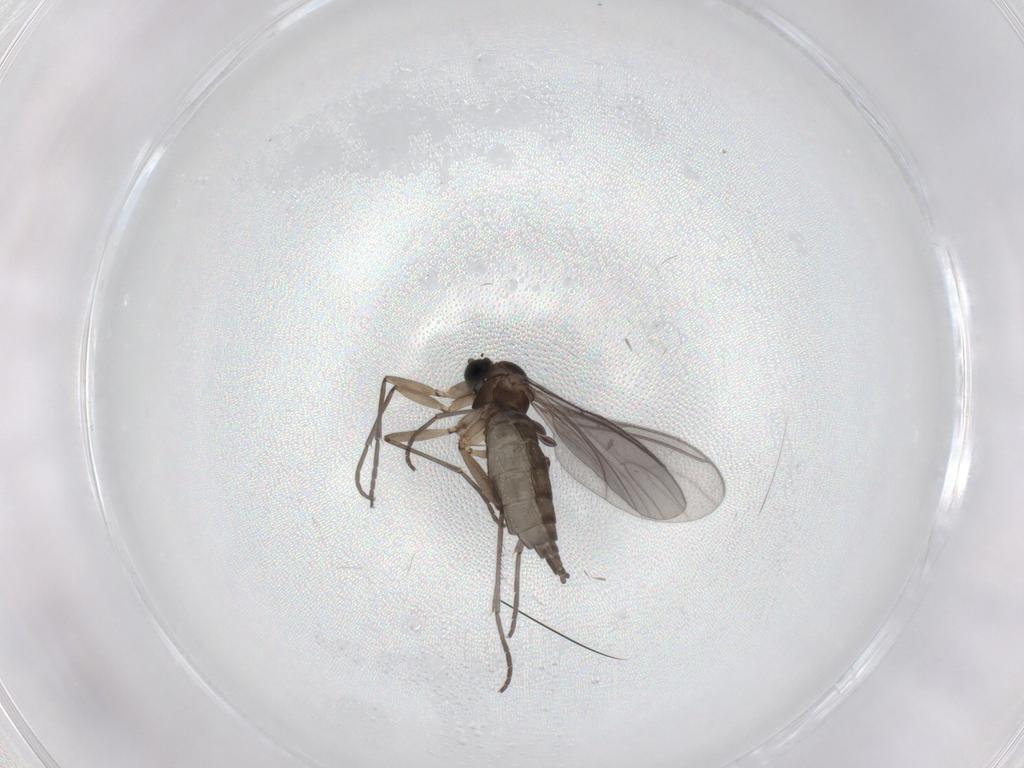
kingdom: Animalia
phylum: Arthropoda
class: Insecta
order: Diptera
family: Sciaridae
